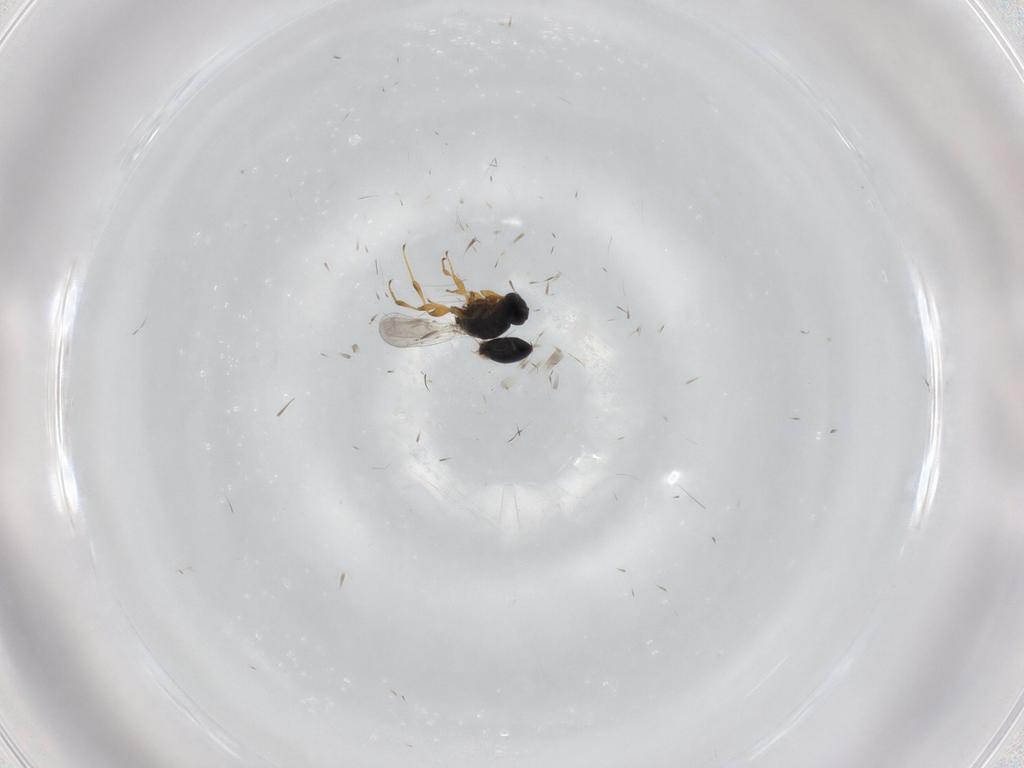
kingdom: Animalia
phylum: Arthropoda
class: Insecta
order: Hymenoptera
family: Platygastridae
